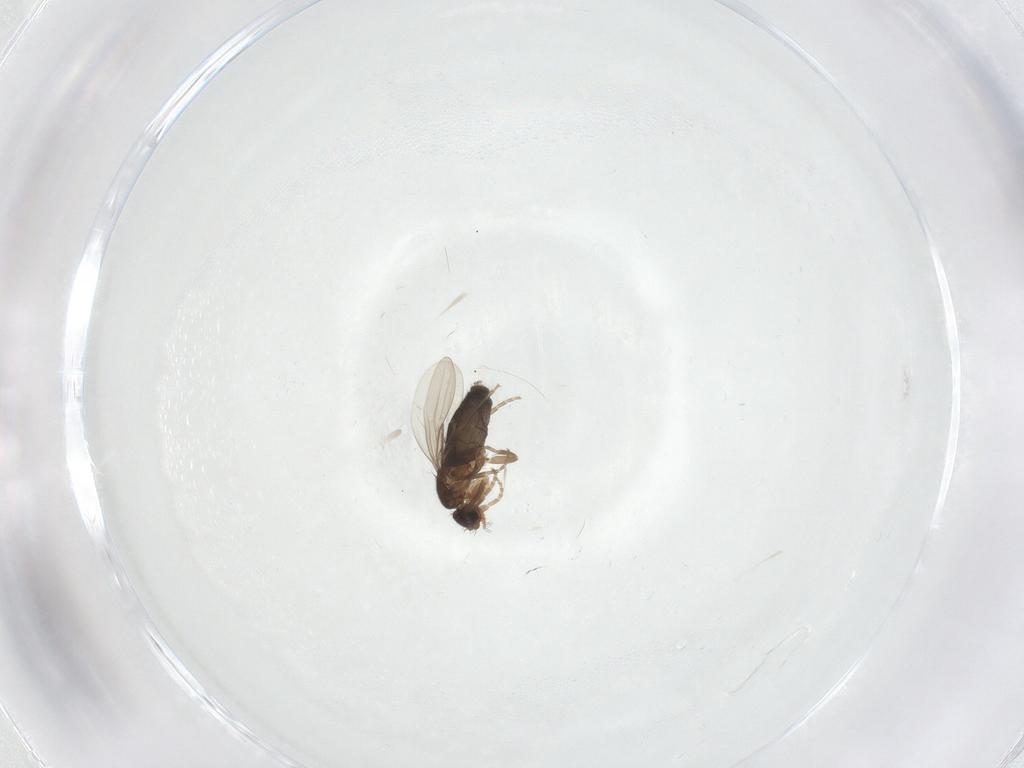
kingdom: Animalia
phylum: Arthropoda
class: Insecta
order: Diptera
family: Phoridae
